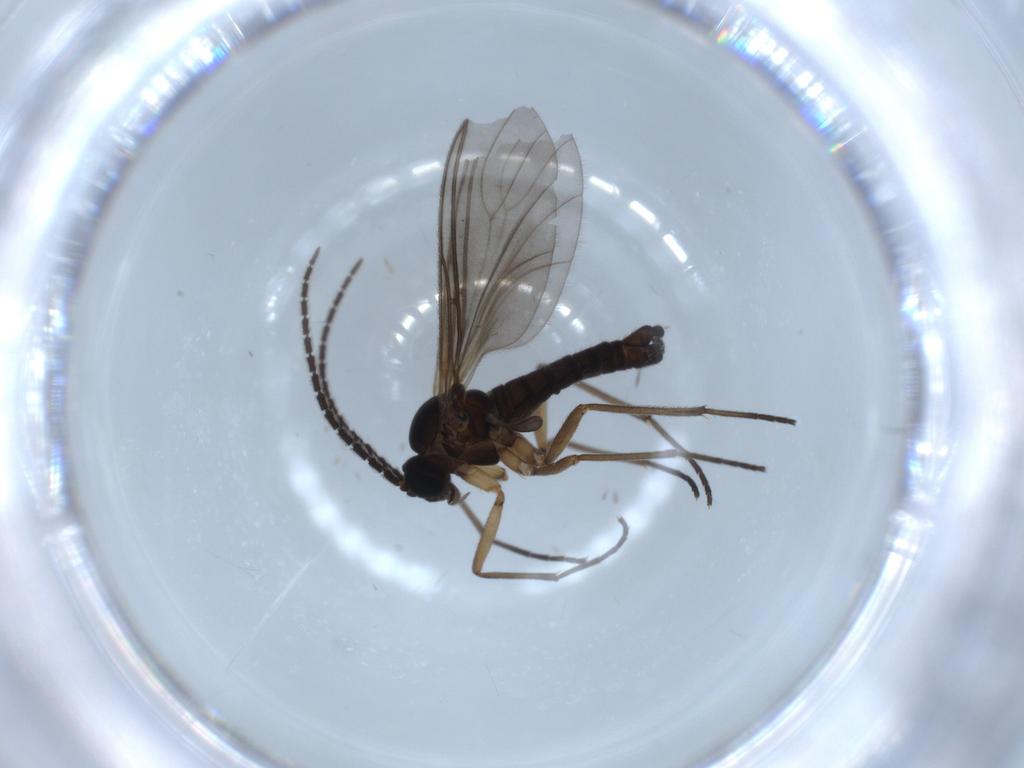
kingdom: Animalia
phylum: Arthropoda
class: Insecta
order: Diptera
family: Sciaridae
